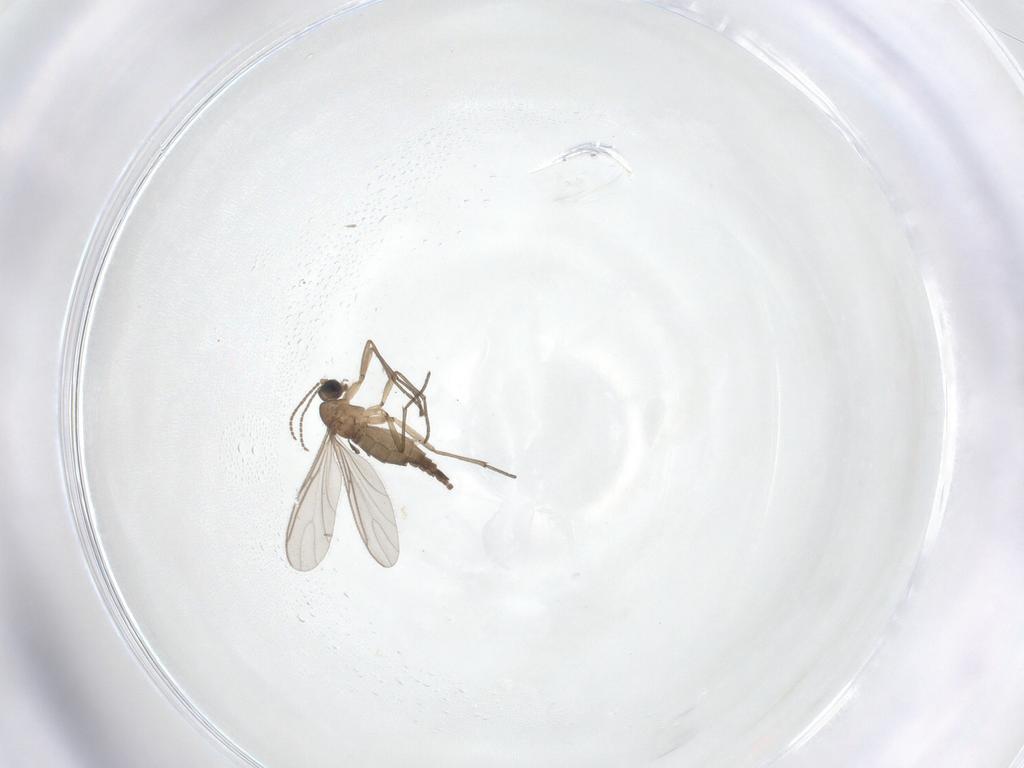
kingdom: Animalia
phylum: Arthropoda
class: Insecta
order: Diptera
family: Sciaridae
